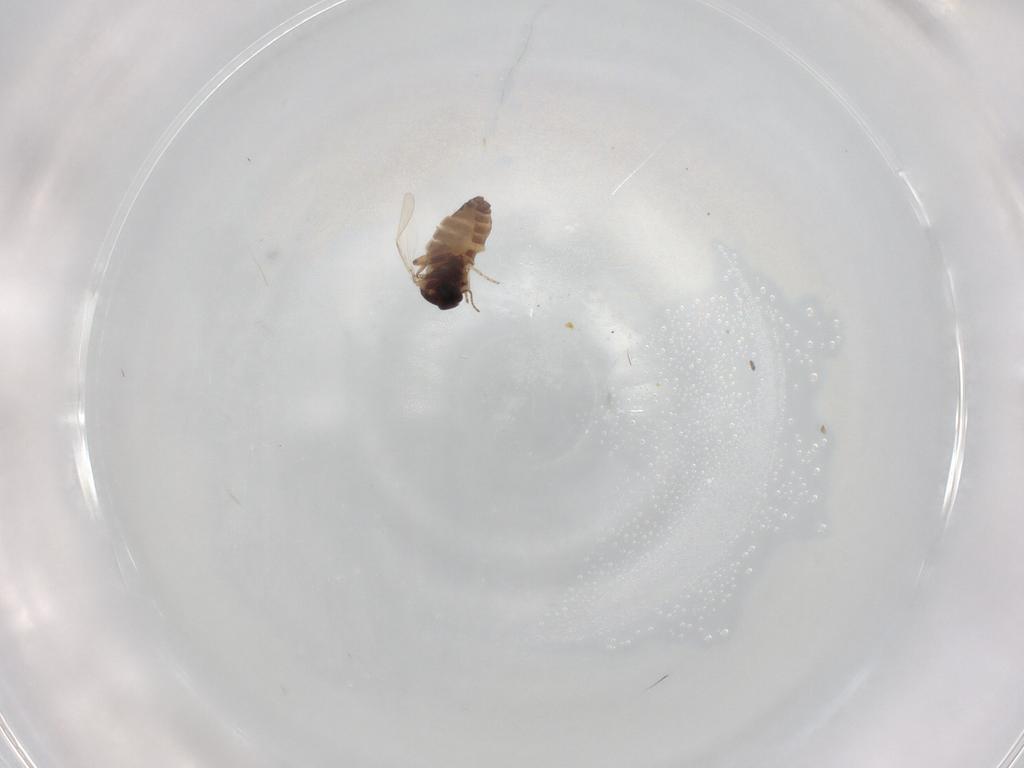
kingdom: Animalia
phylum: Arthropoda
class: Insecta
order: Diptera
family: Ceratopogonidae
